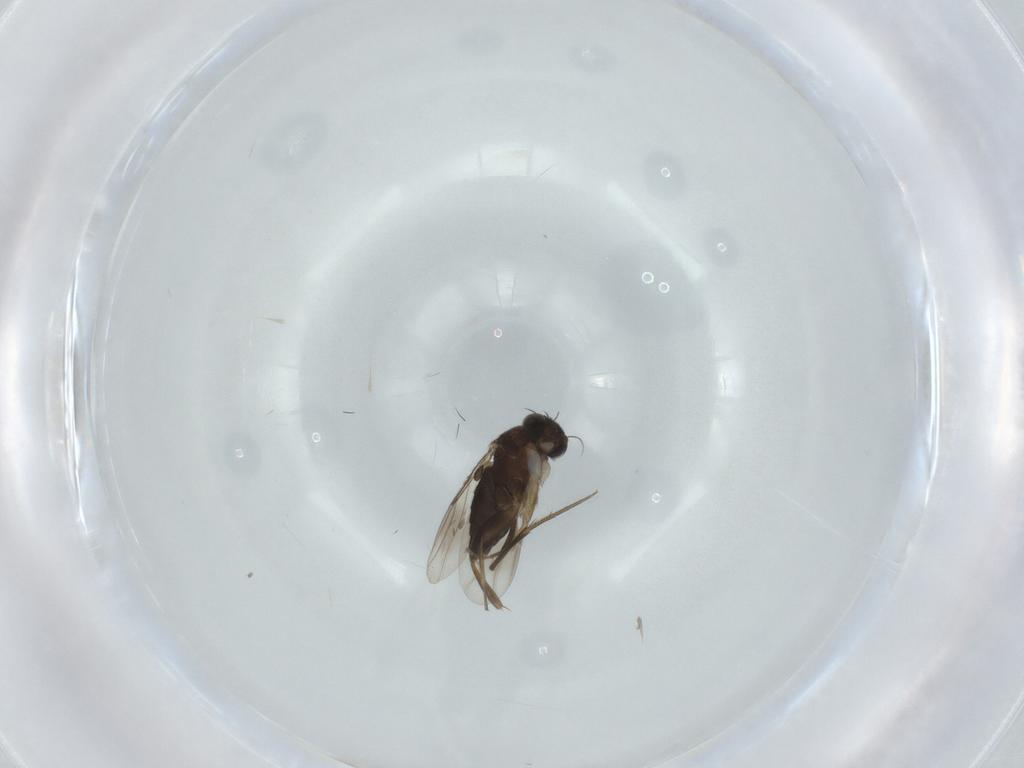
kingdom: Animalia
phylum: Arthropoda
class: Insecta
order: Diptera
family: Phoridae
